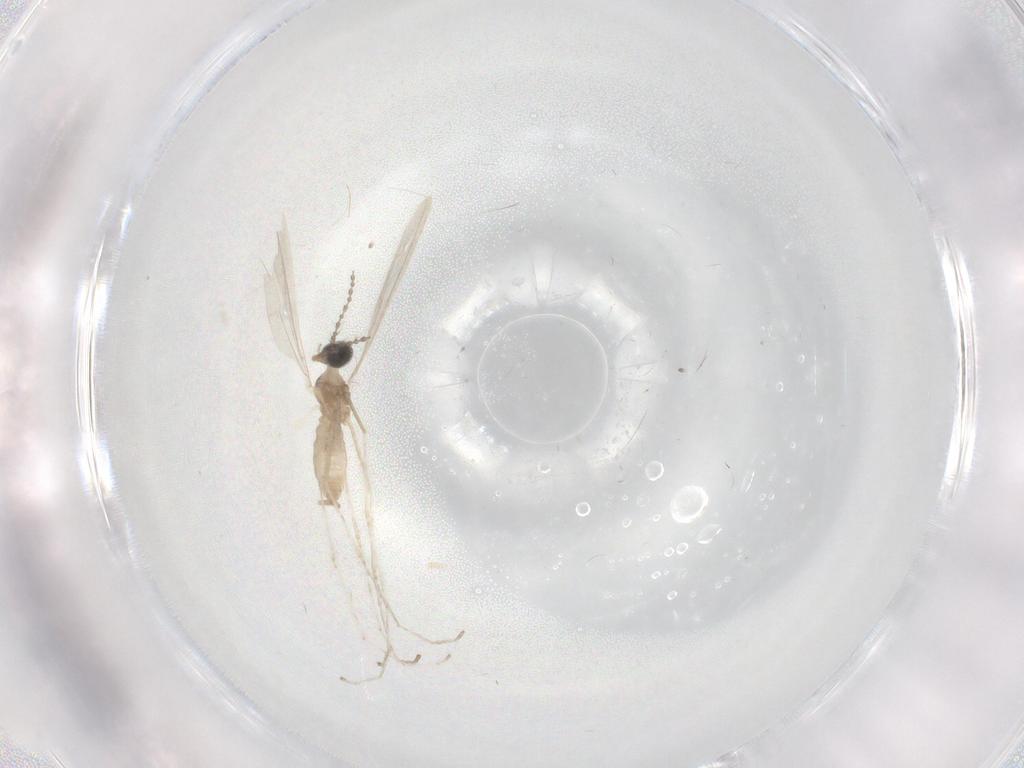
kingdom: Animalia
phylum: Arthropoda
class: Insecta
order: Diptera
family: Cecidomyiidae
